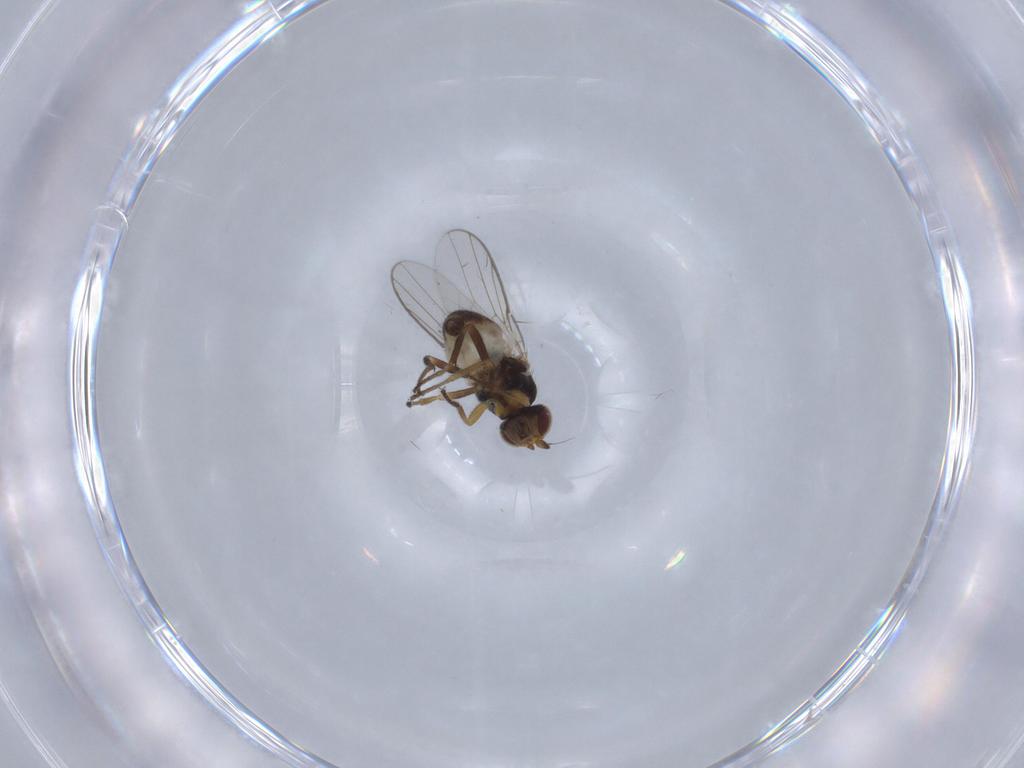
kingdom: Animalia
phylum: Arthropoda
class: Insecta
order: Diptera
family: Chloropidae
